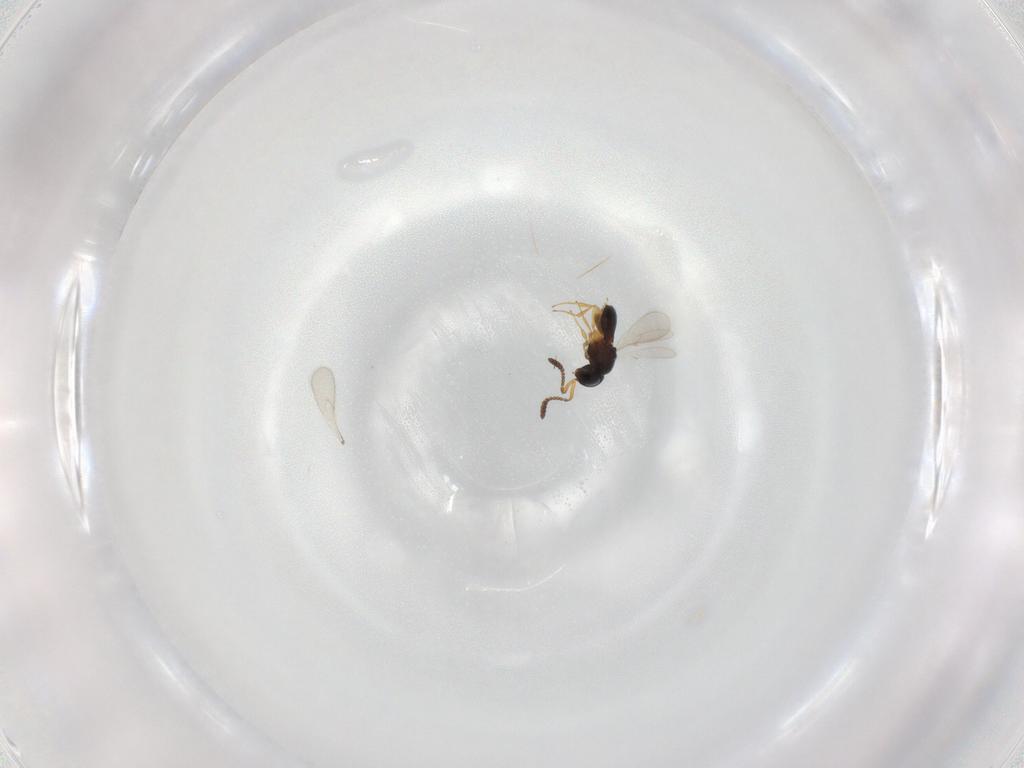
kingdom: Animalia
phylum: Arthropoda
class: Insecta
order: Hymenoptera
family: Scelionidae
